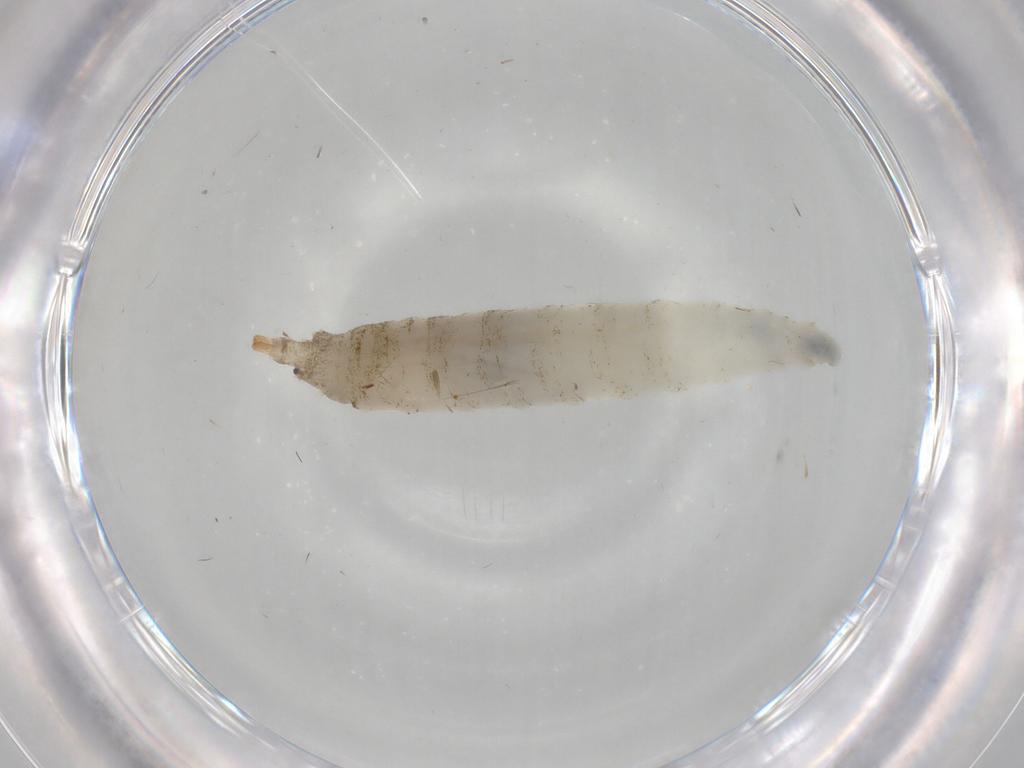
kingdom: Animalia
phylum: Arthropoda
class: Insecta
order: Diptera
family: Drosophilidae
